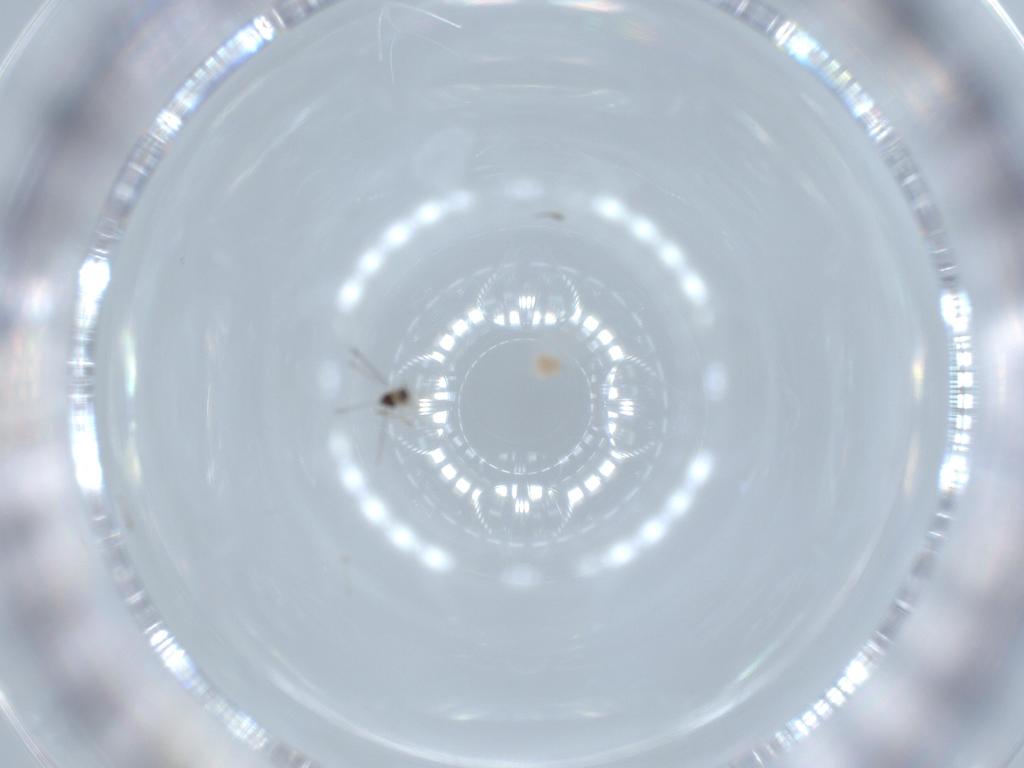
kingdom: Animalia
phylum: Arthropoda
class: Insecta
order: Hymenoptera
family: Mymaridae
